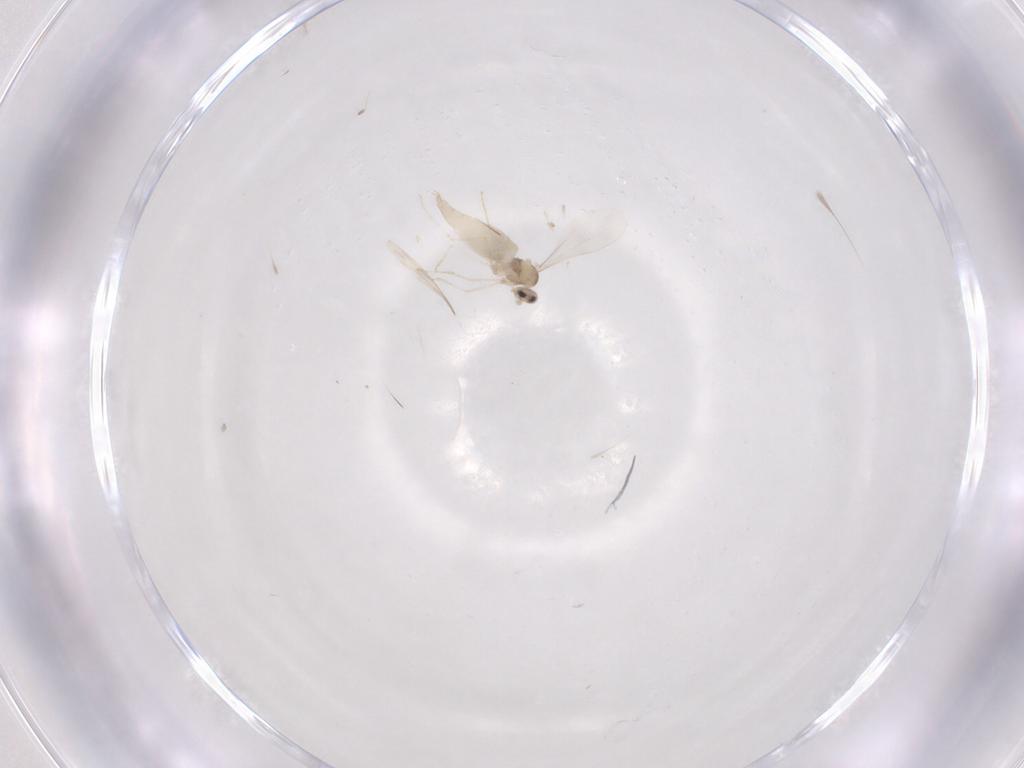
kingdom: Animalia
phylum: Arthropoda
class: Insecta
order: Diptera
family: Cecidomyiidae
